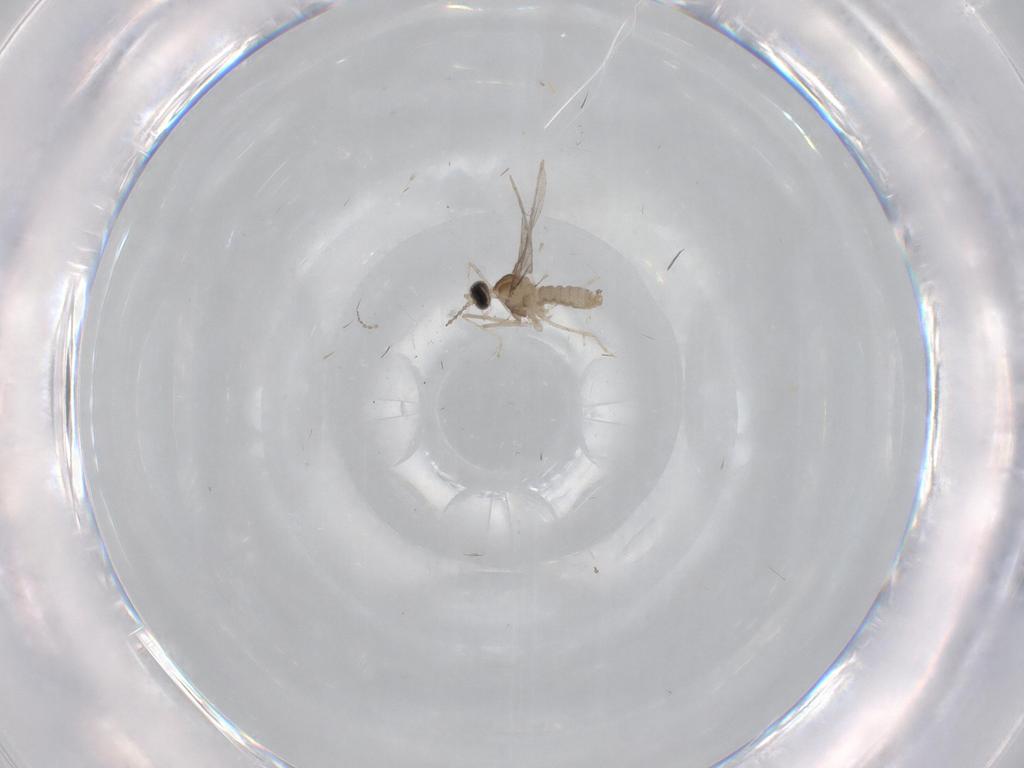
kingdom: Animalia
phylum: Arthropoda
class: Insecta
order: Diptera
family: Cecidomyiidae
